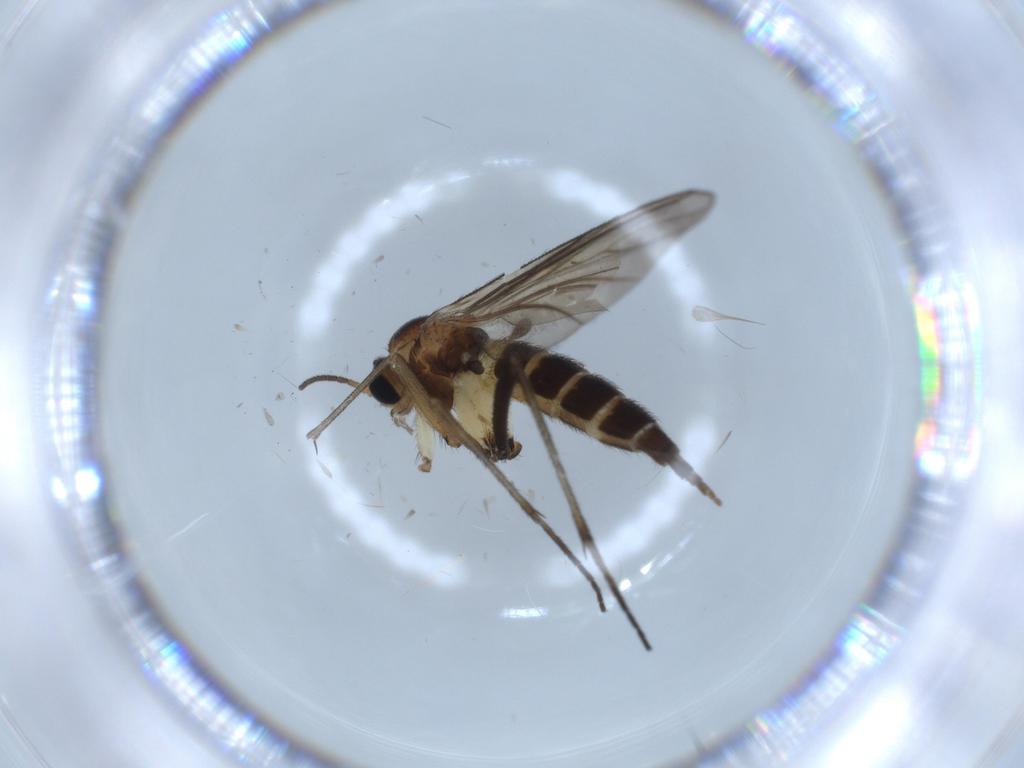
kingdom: Animalia
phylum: Arthropoda
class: Insecta
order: Diptera
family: Sciaridae
